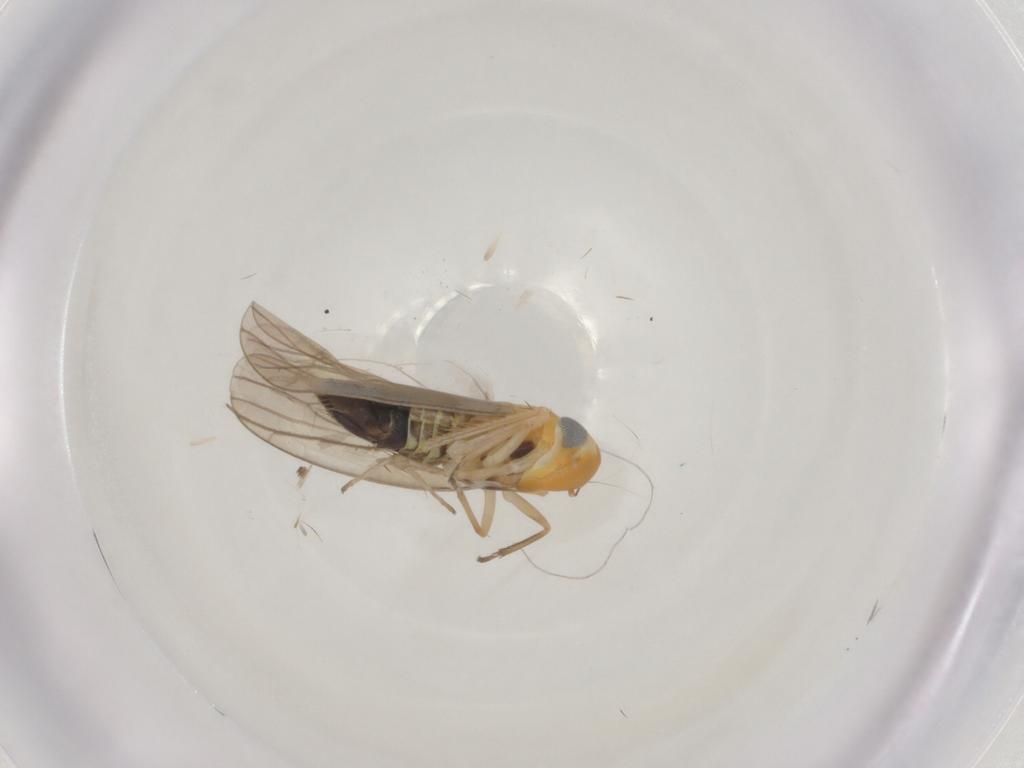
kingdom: Animalia
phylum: Arthropoda
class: Insecta
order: Hemiptera
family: Cicadellidae
